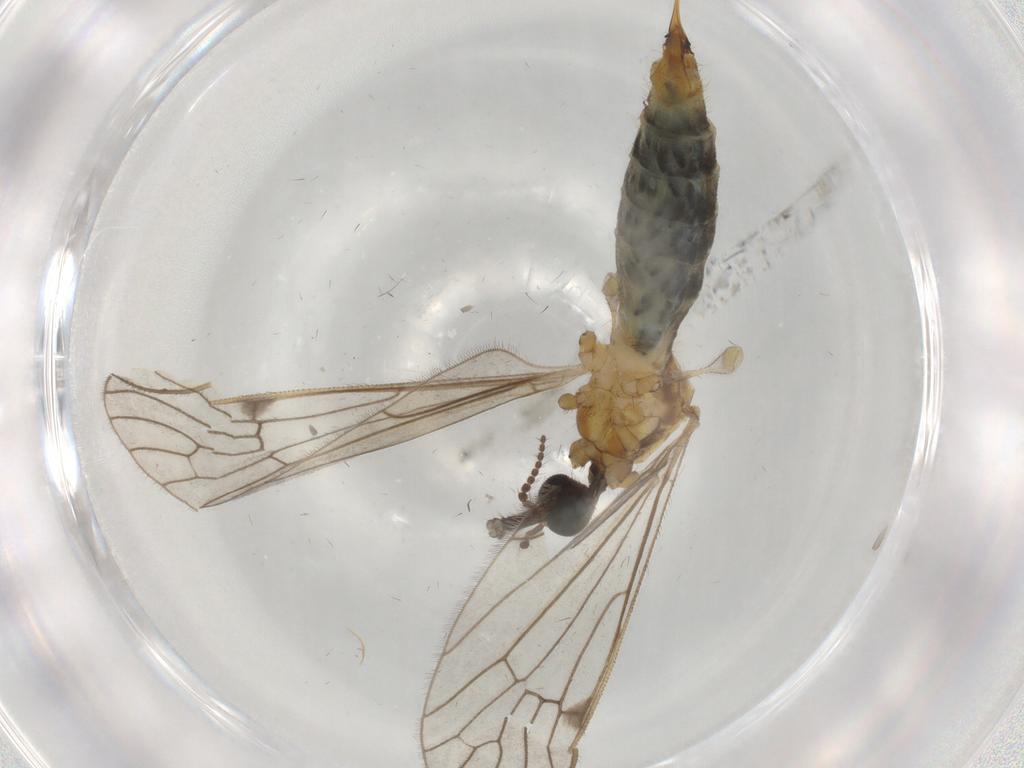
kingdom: Animalia
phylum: Arthropoda
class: Insecta
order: Diptera
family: Limoniidae
